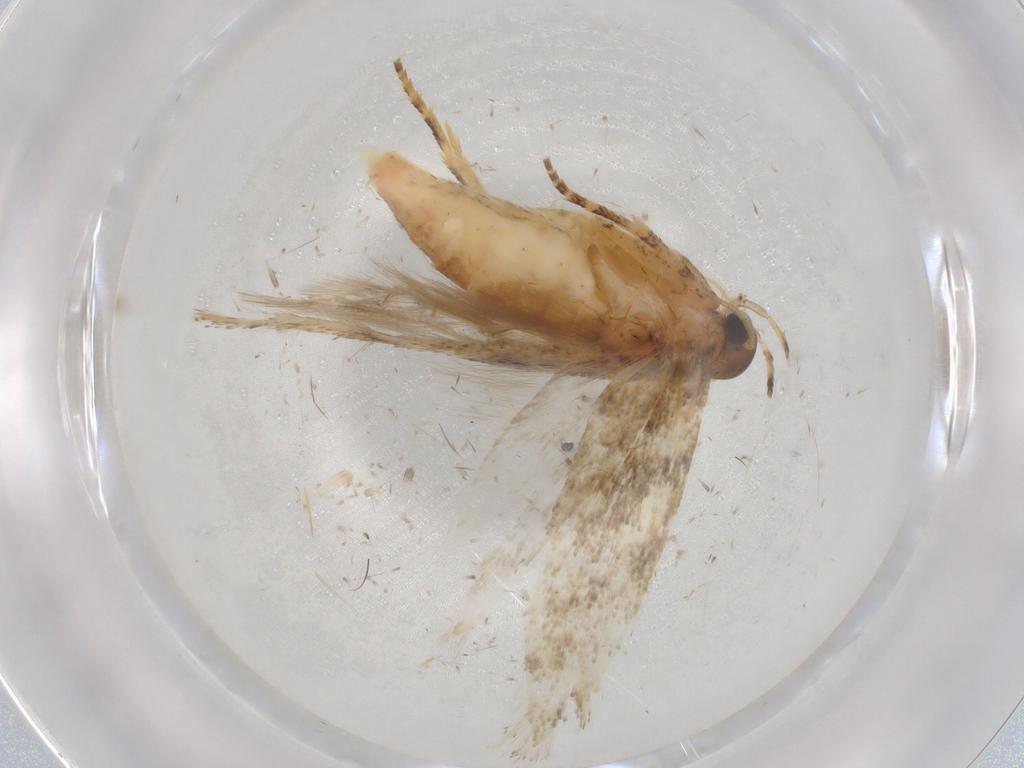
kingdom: Animalia
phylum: Arthropoda
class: Insecta
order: Lepidoptera
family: Gelechiidae
